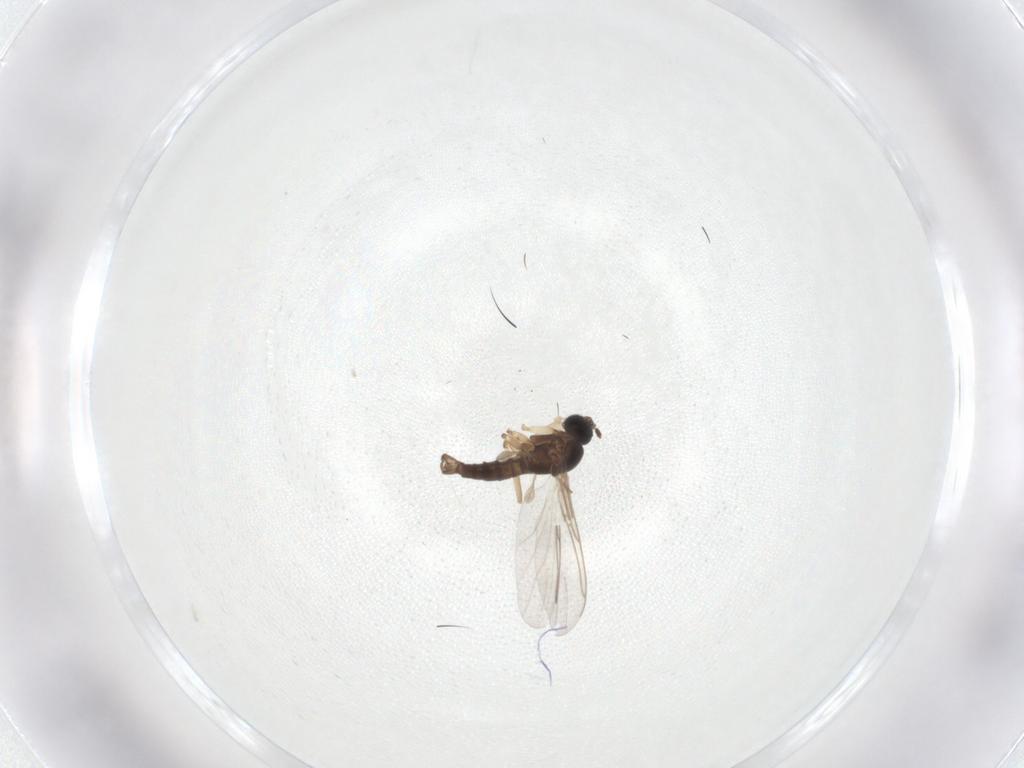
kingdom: Animalia
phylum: Arthropoda
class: Insecta
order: Diptera
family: Sciaridae
